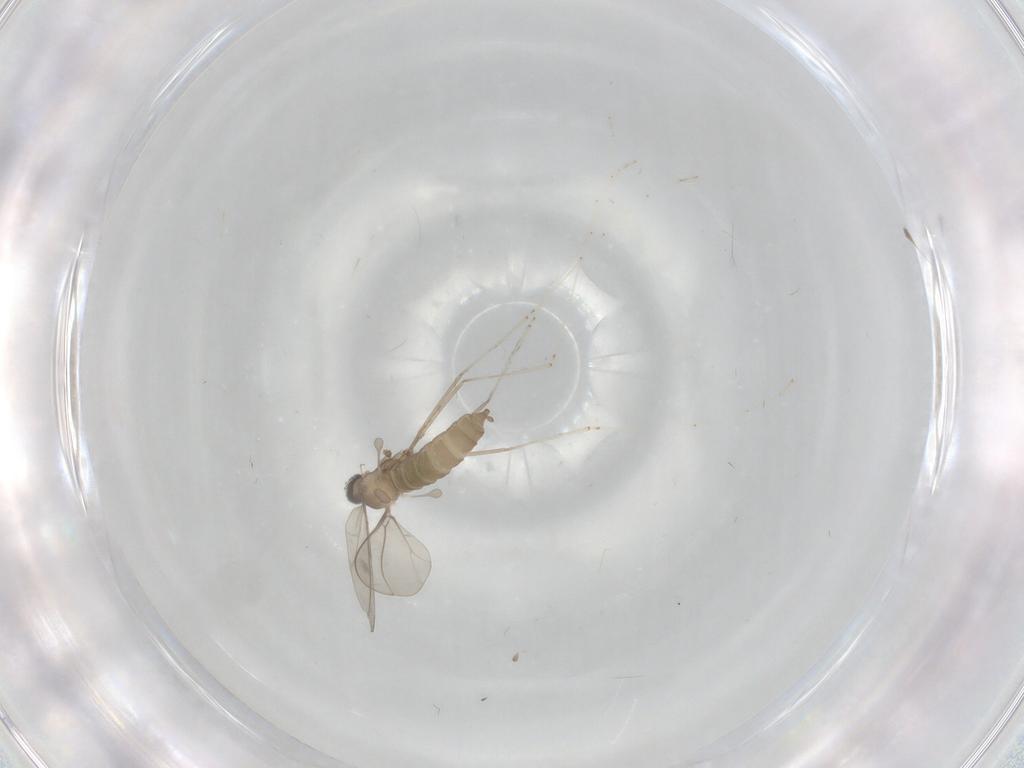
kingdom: Animalia
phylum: Arthropoda
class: Insecta
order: Diptera
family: Cecidomyiidae
